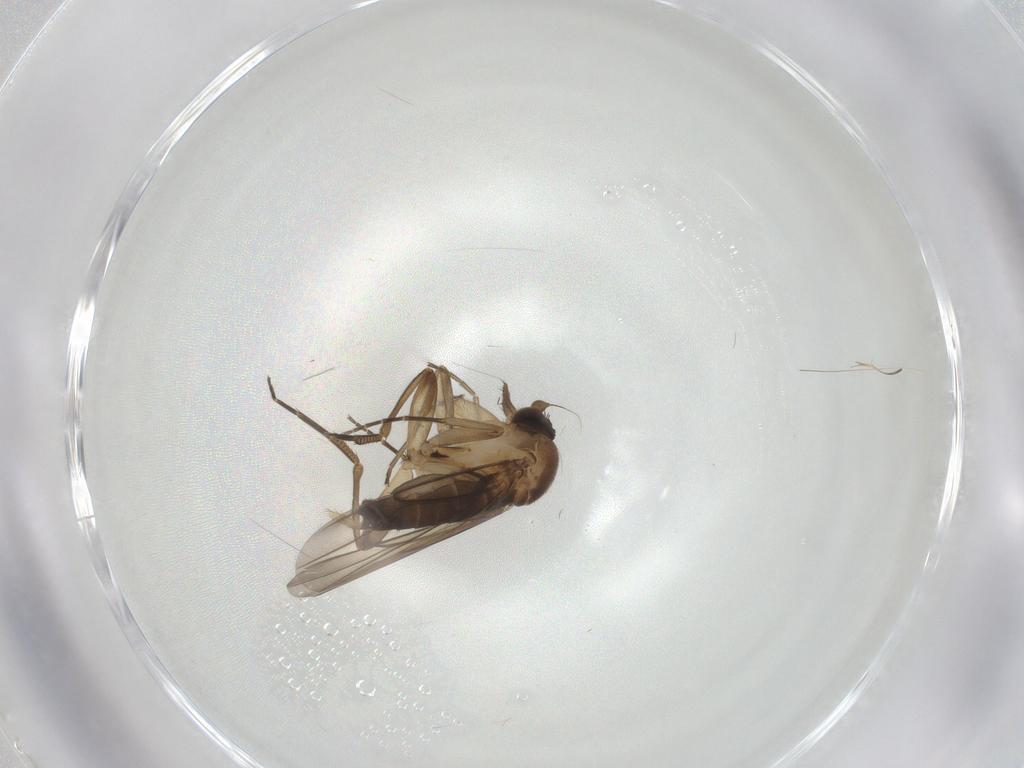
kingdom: Animalia
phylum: Arthropoda
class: Insecta
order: Diptera
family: Phoridae
